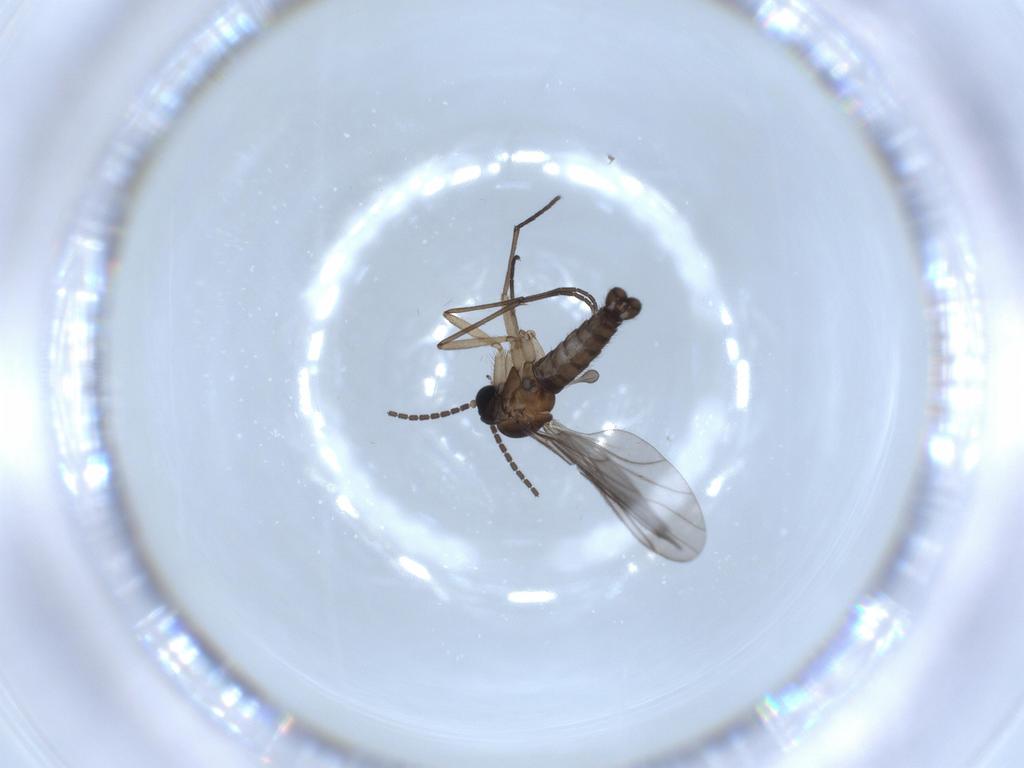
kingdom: Animalia
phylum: Arthropoda
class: Insecta
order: Diptera
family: Sciaridae
